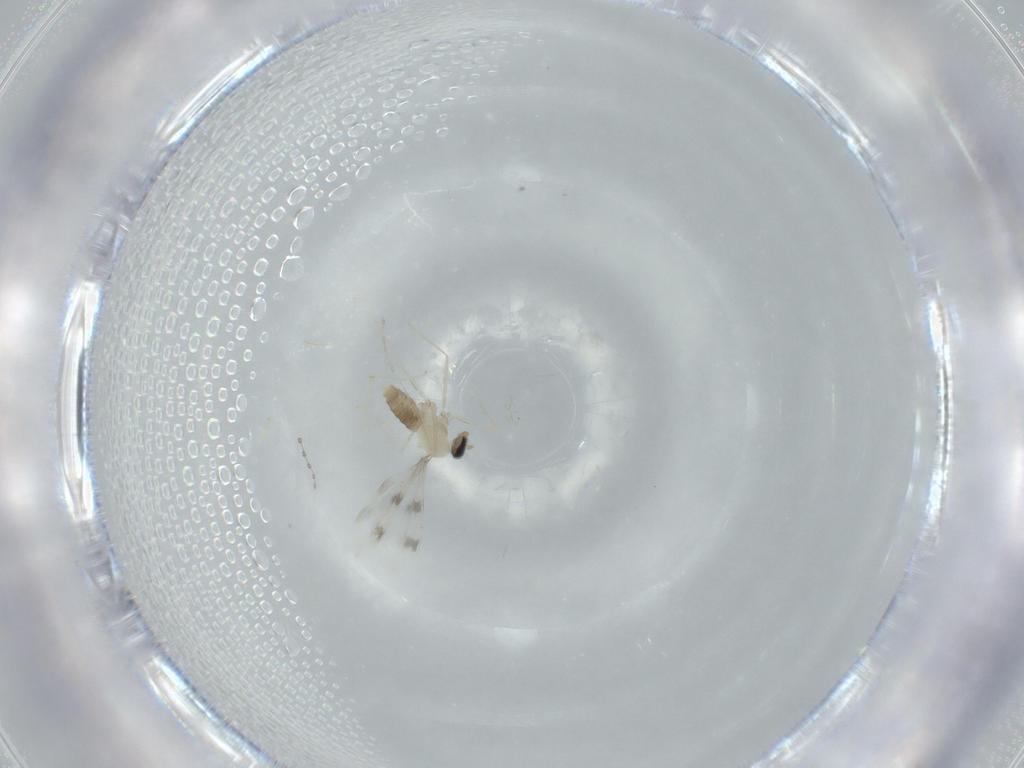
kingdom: Animalia
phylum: Arthropoda
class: Insecta
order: Diptera
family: Cecidomyiidae
